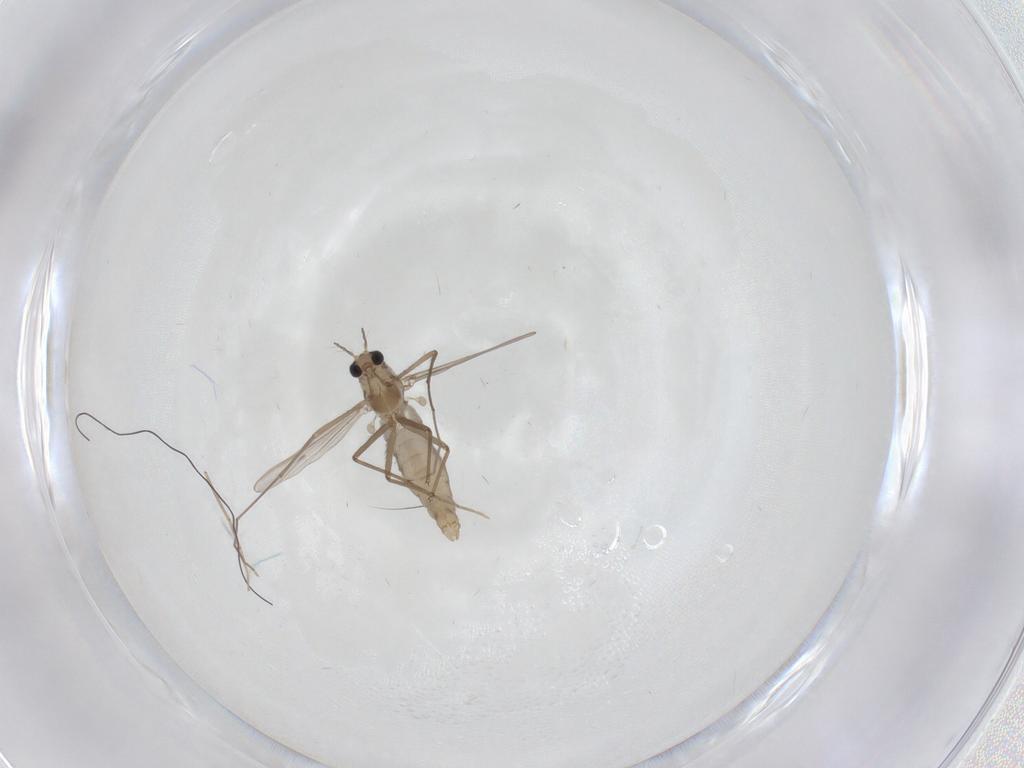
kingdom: Animalia
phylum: Arthropoda
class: Insecta
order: Diptera
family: Chironomidae
